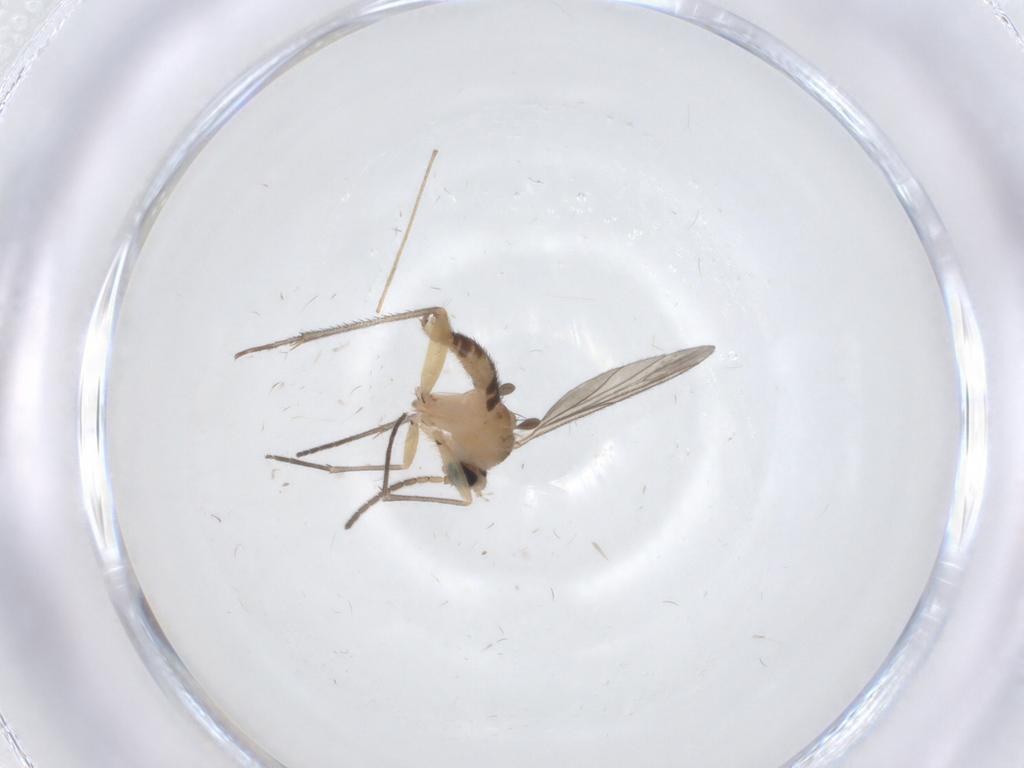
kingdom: Animalia
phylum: Arthropoda
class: Insecta
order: Diptera
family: Sciaridae
